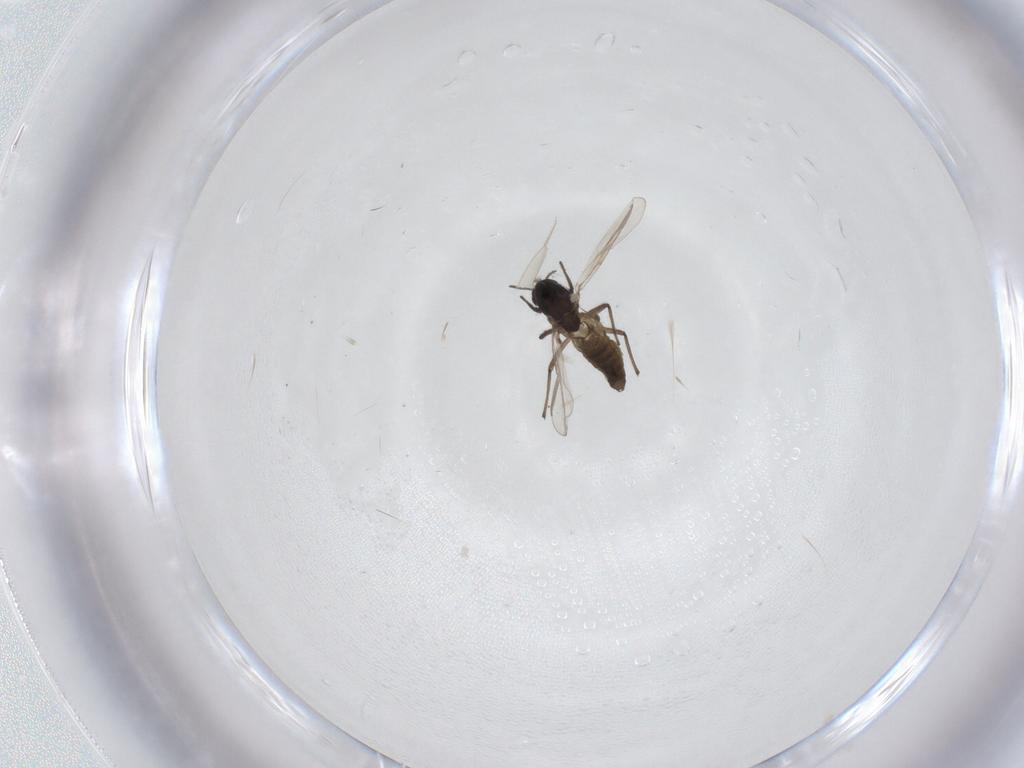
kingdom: Animalia
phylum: Arthropoda
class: Insecta
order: Diptera
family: Chironomidae
